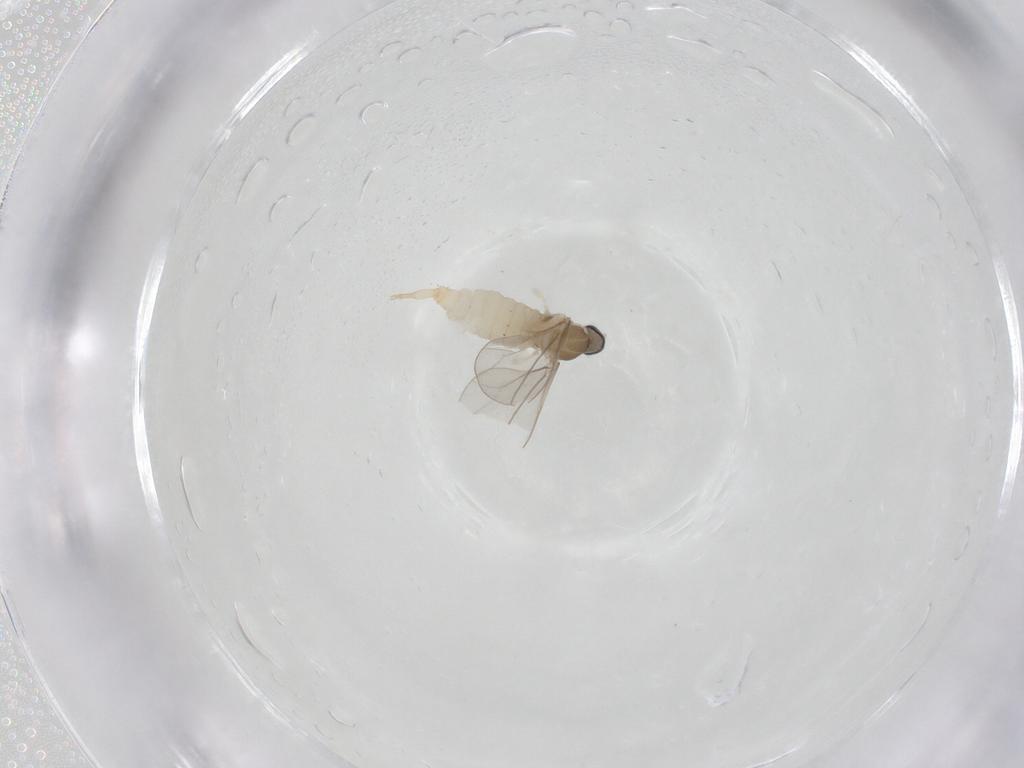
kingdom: Animalia
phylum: Arthropoda
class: Insecta
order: Diptera
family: Cecidomyiidae
